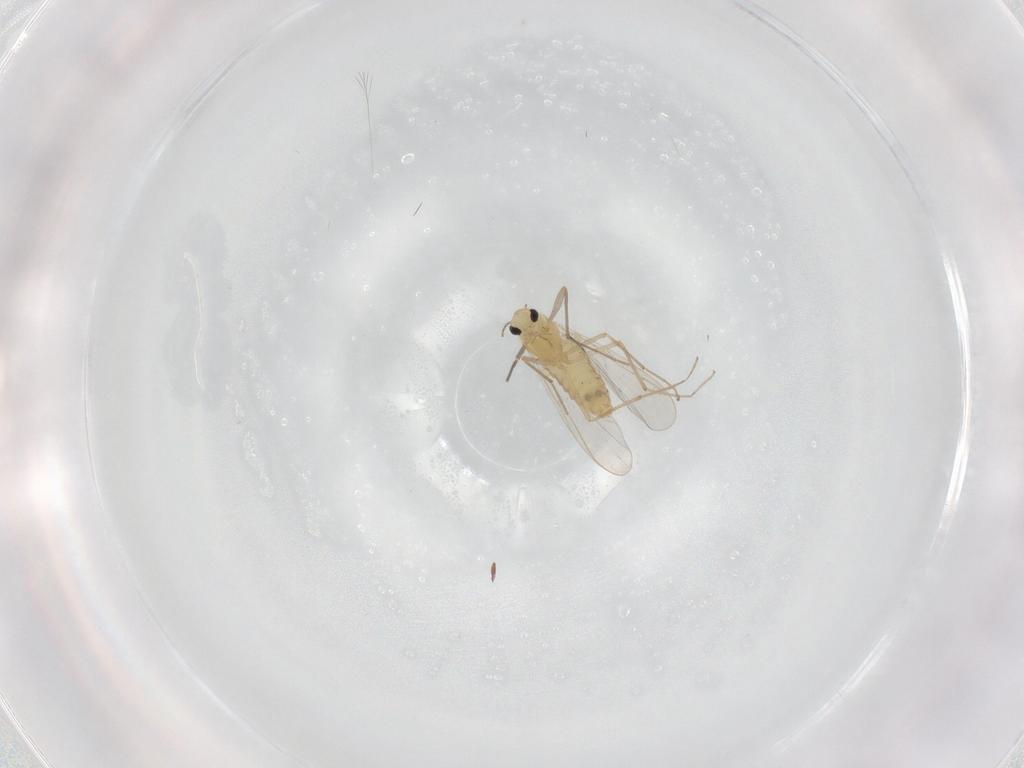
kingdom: Animalia
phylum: Arthropoda
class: Insecta
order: Diptera
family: Chironomidae
